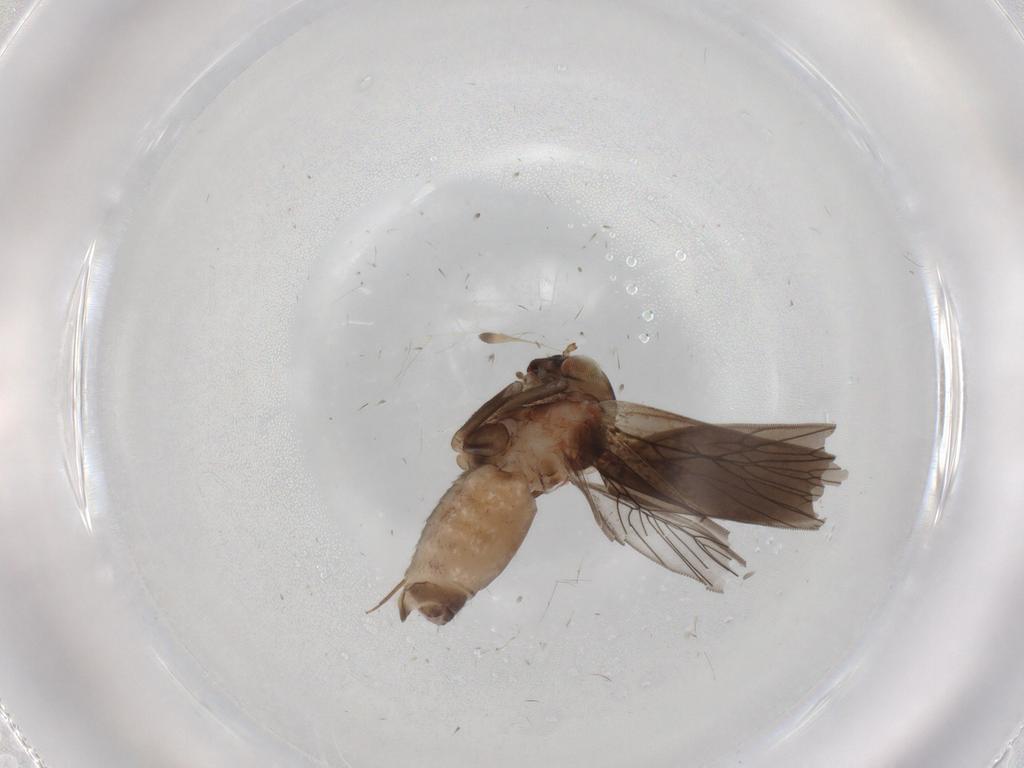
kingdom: Animalia
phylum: Arthropoda
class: Insecta
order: Psocodea
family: Lepidopsocidae
